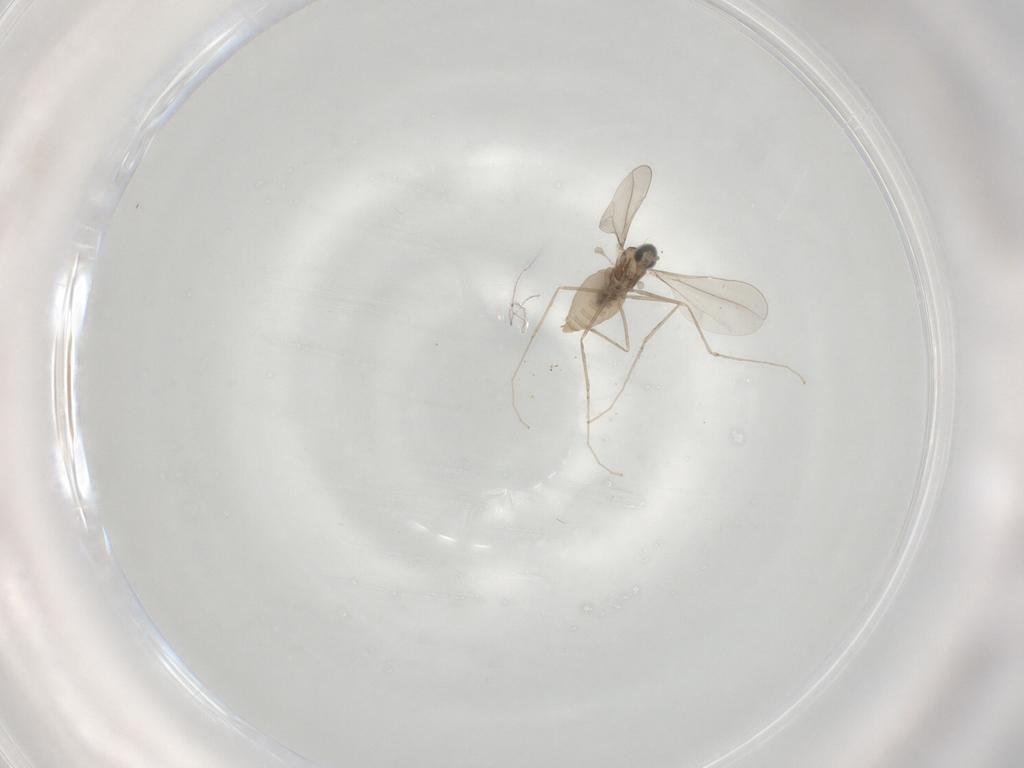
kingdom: Animalia
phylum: Arthropoda
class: Insecta
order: Diptera
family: Cecidomyiidae
